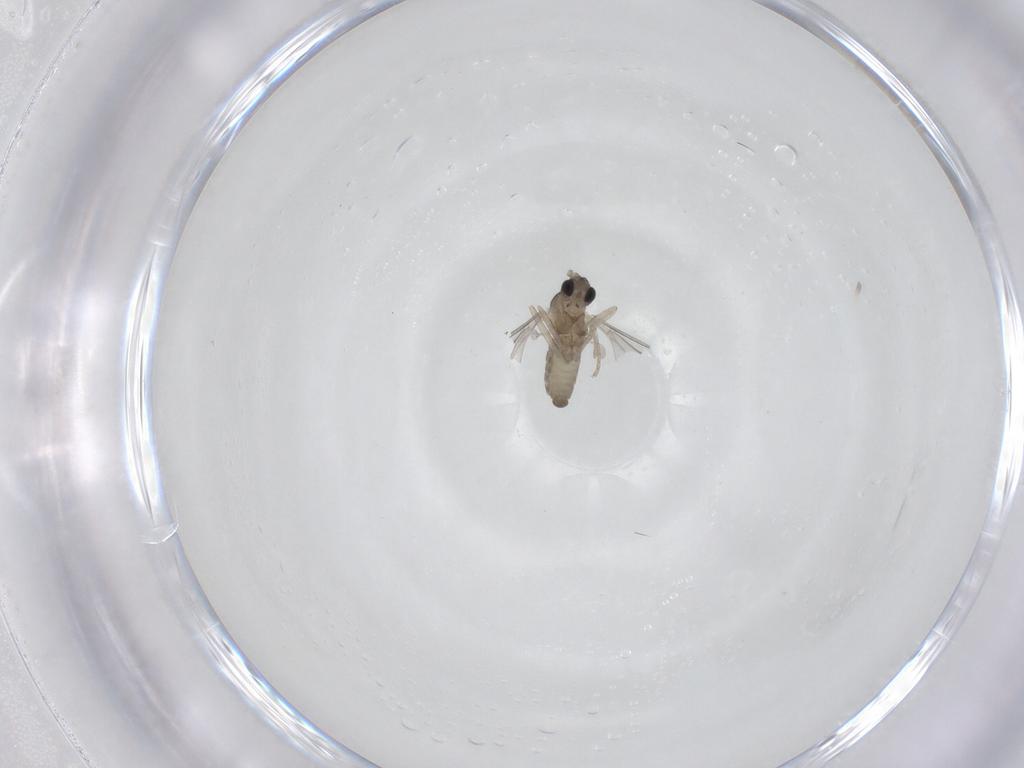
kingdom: Animalia
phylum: Arthropoda
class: Insecta
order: Diptera
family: Cecidomyiidae
